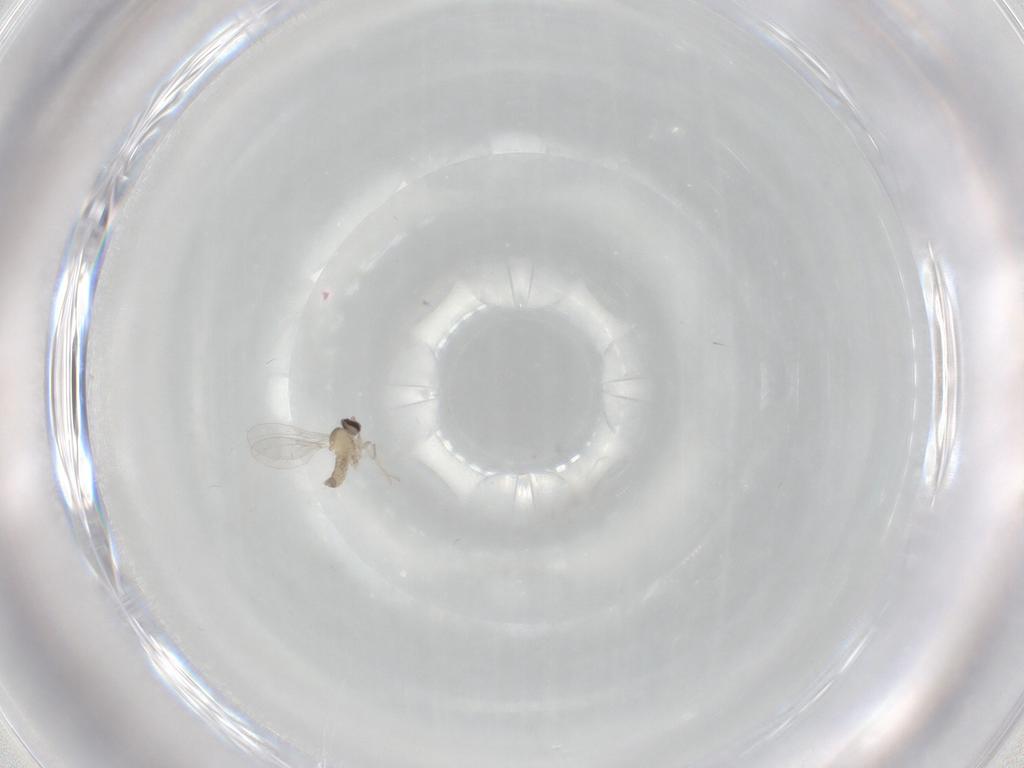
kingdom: Animalia
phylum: Arthropoda
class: Insecta
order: Diptera
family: Cecidomyiidae
